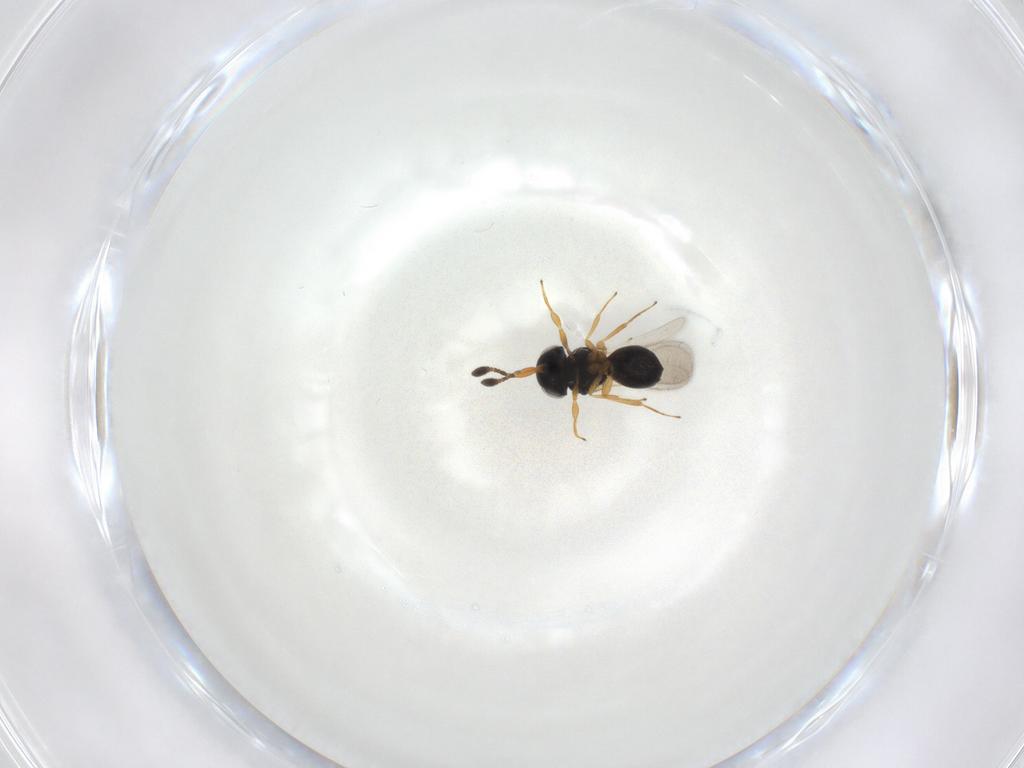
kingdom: Animalia
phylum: Arthropoda
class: Insecta
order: Hymenoptera
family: Scelionidae
